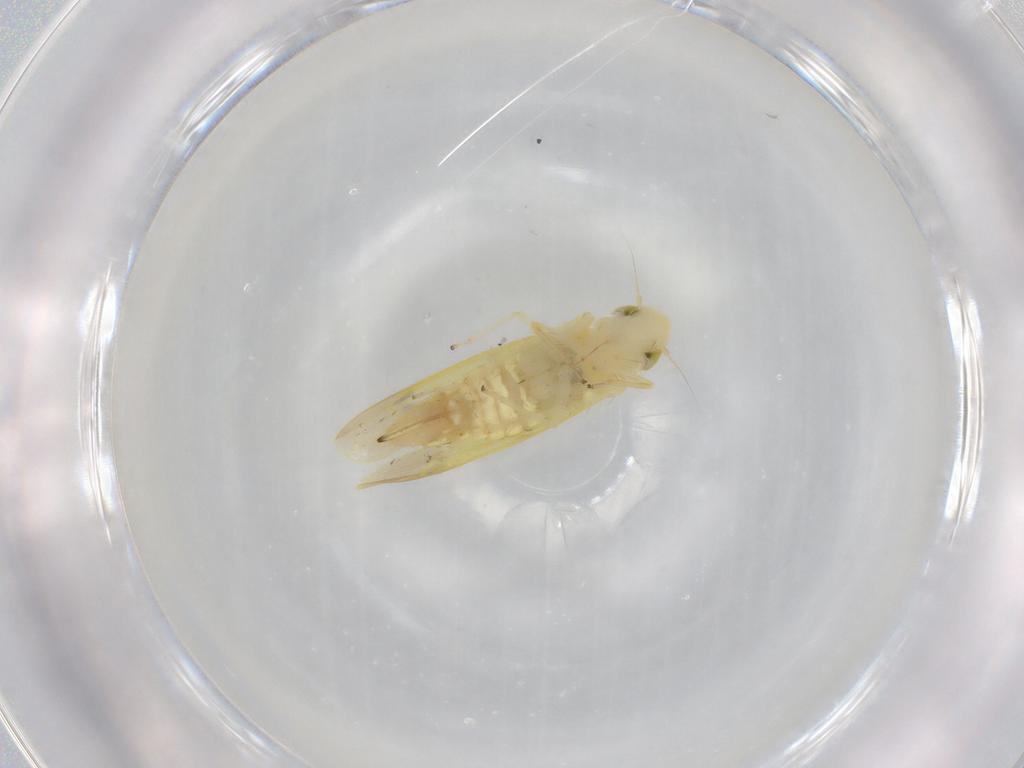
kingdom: Animalia
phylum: Arthropoda
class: Insecta
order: Hemiptera
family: Cicadellidae
